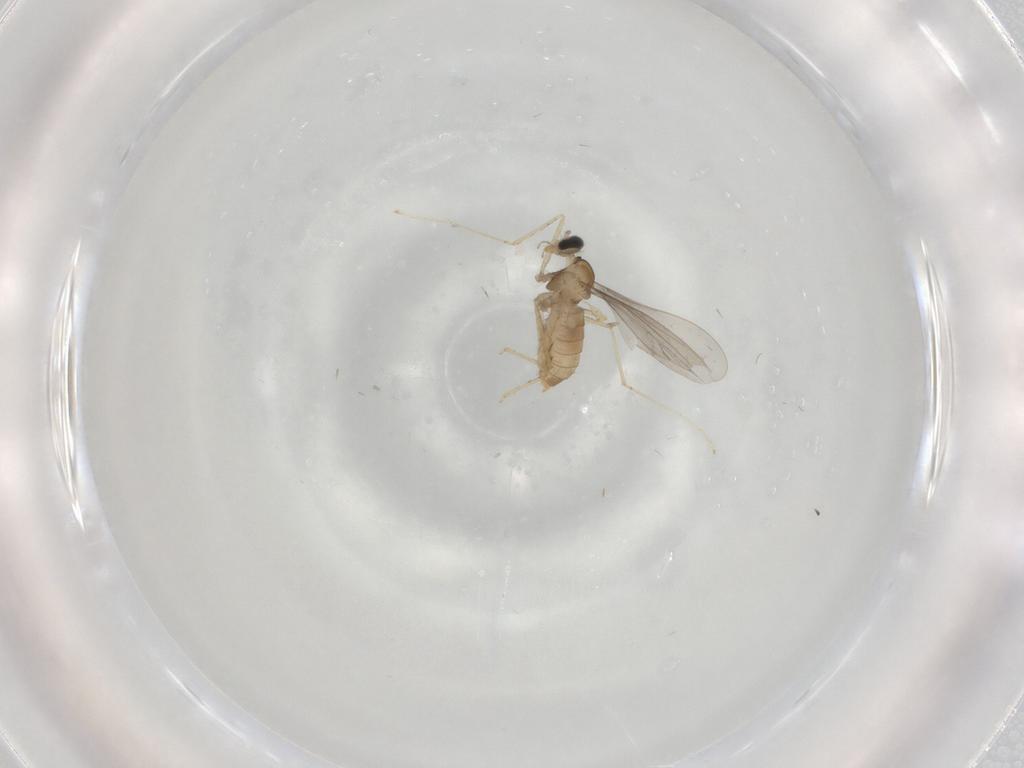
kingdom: Animalia
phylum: Arthropoda
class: Insecta
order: Diptera
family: Cecidomyiidae
